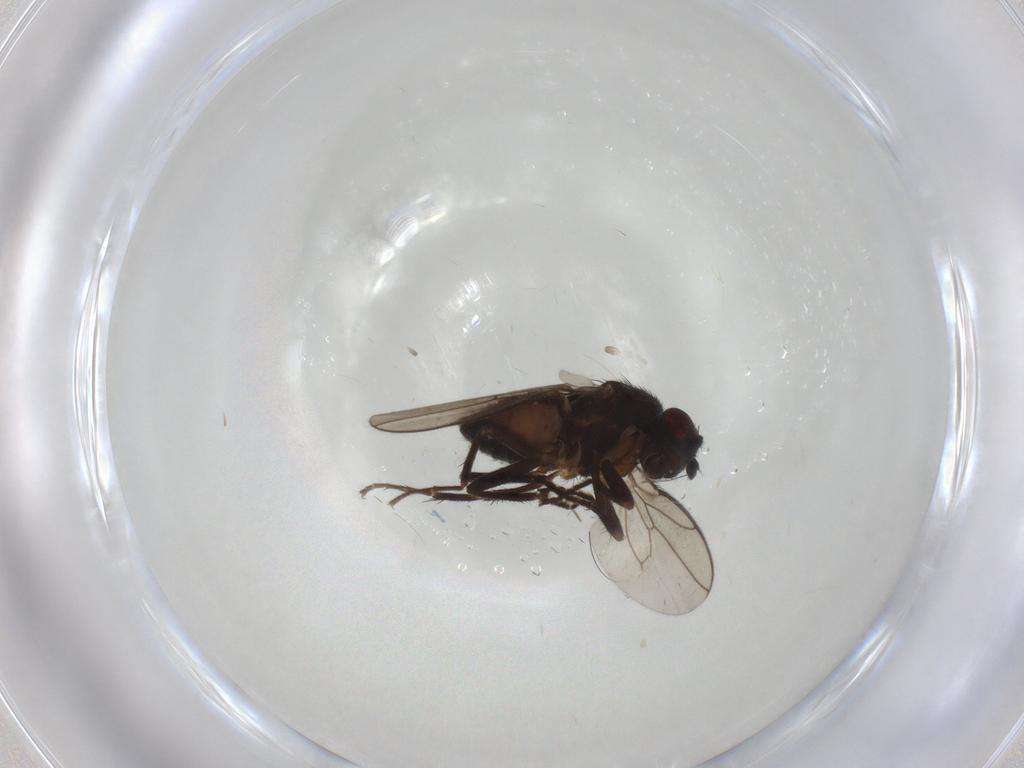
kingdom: Animalia
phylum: Arthropoda
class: Insecta
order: Diptera
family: Sphaeroceridae
